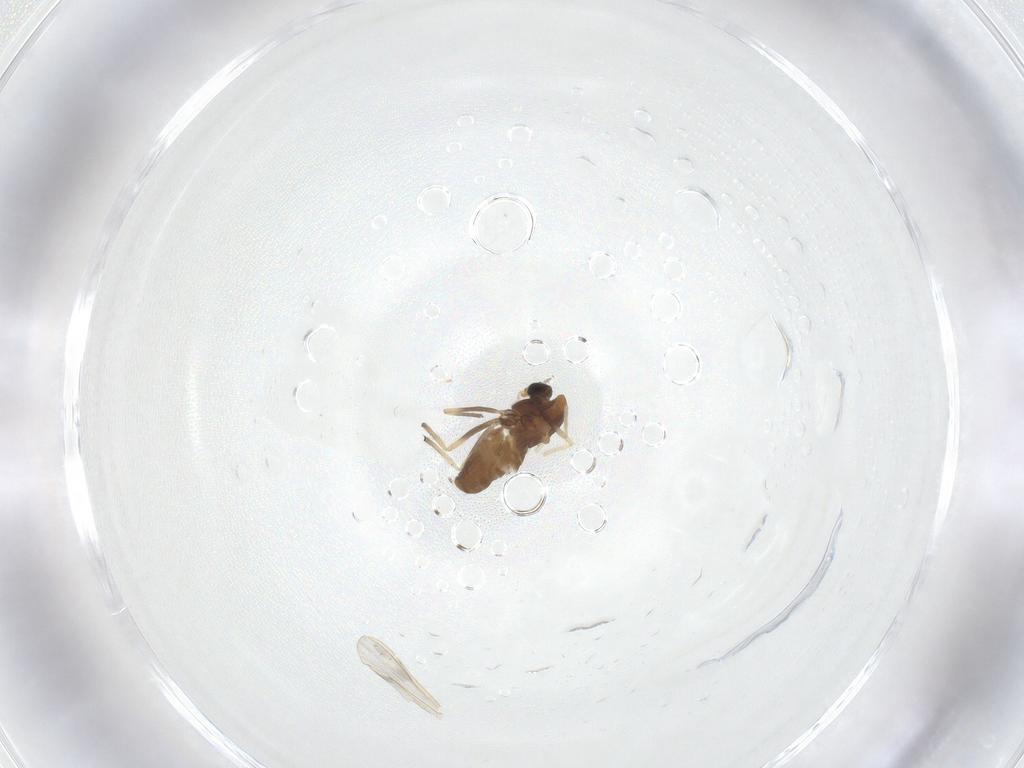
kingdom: Animalia
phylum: Arthropoda
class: Insecta
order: Diptera
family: Chironomidae
